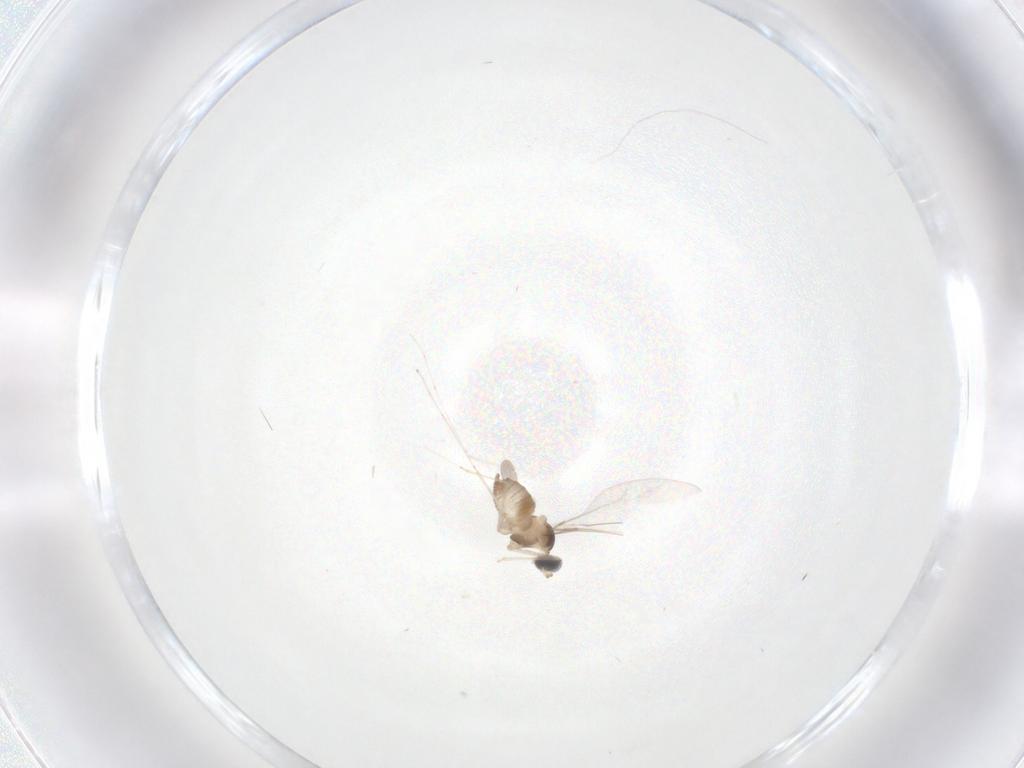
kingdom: Animalia
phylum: Arthropoda
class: Insecta
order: Diptera
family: Cecidomyiidae
